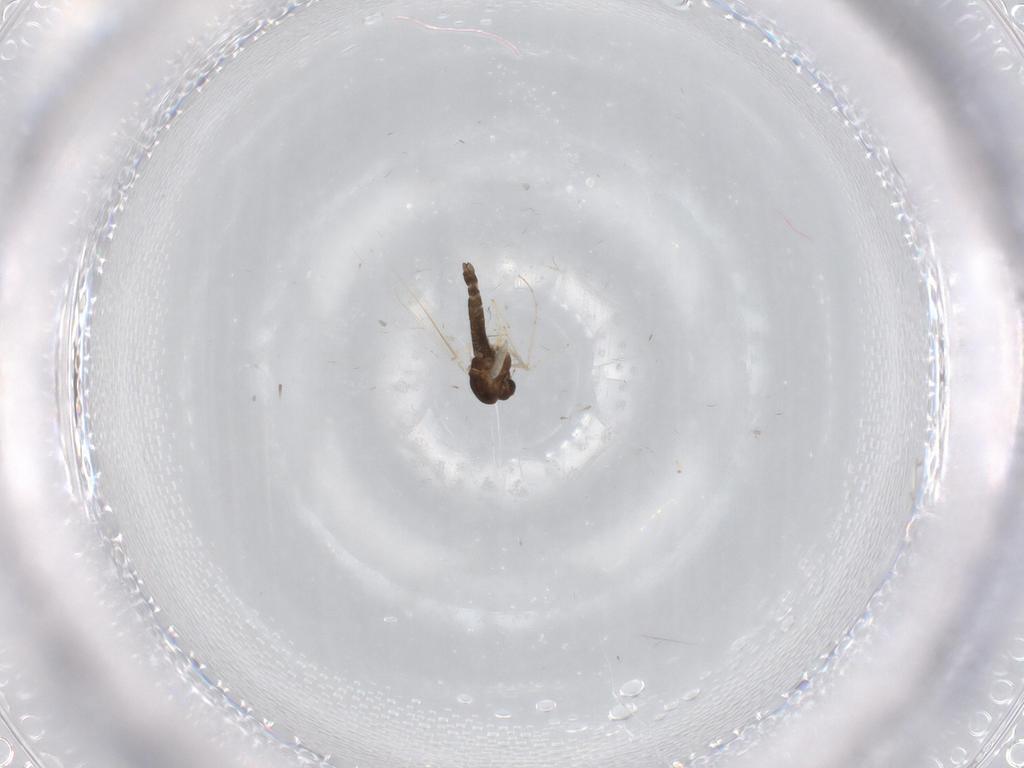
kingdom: Animalia
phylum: Arthropoda
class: Insecta
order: Diptera
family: Chironomidae
